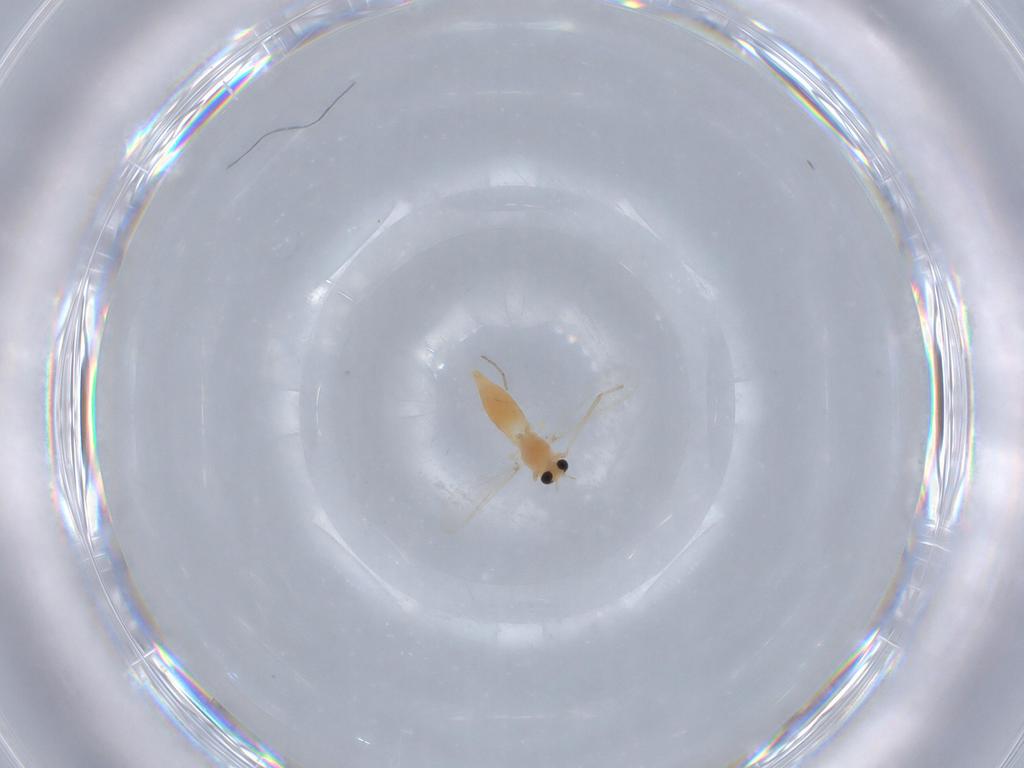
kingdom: Animalia
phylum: Arthropoda
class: Insecta
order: Diptera
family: Chironomidae
